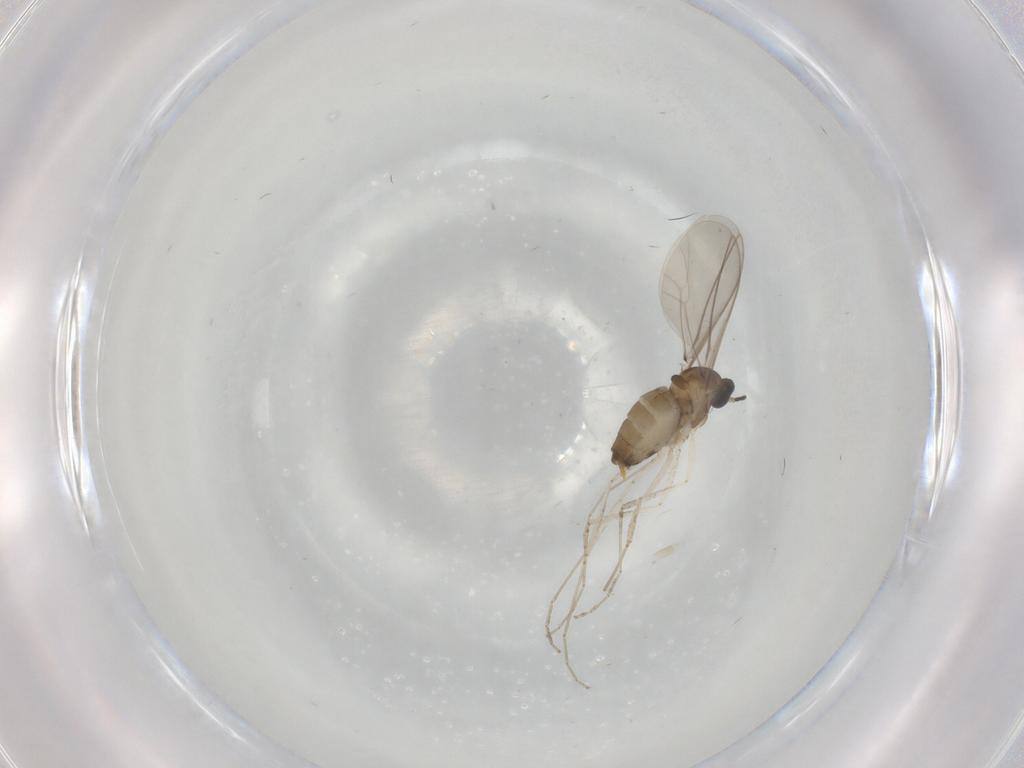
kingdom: Animalia
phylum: Arthropoda
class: Insecta
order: Diptera
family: Cecidomyiidae
